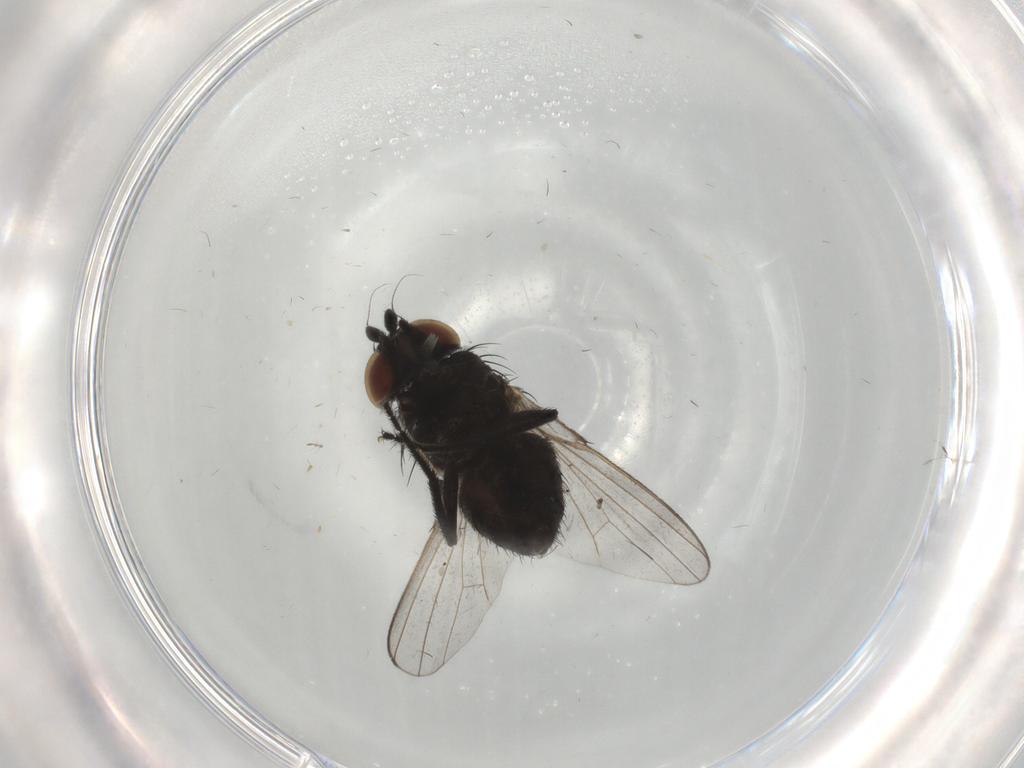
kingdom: Animalia
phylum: Arthropoda
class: Insecta
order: Diptera
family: Milichiidae
